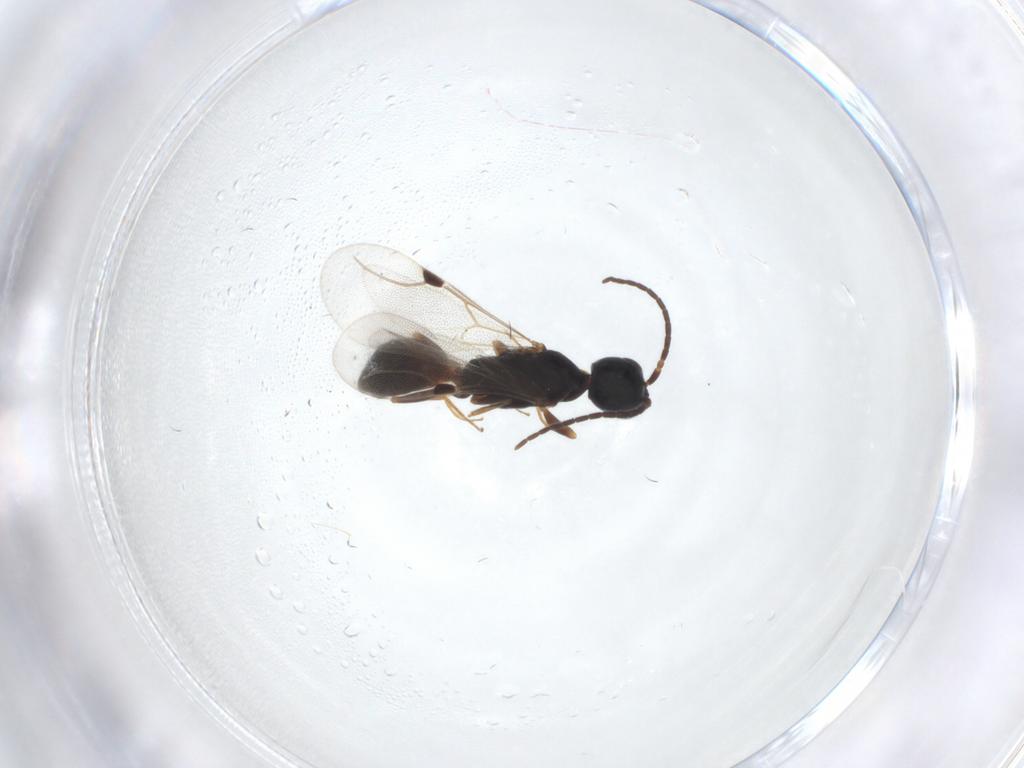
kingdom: Animalia
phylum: Arthropoda
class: Insecta
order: Hymenoptera
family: Bethylidae
